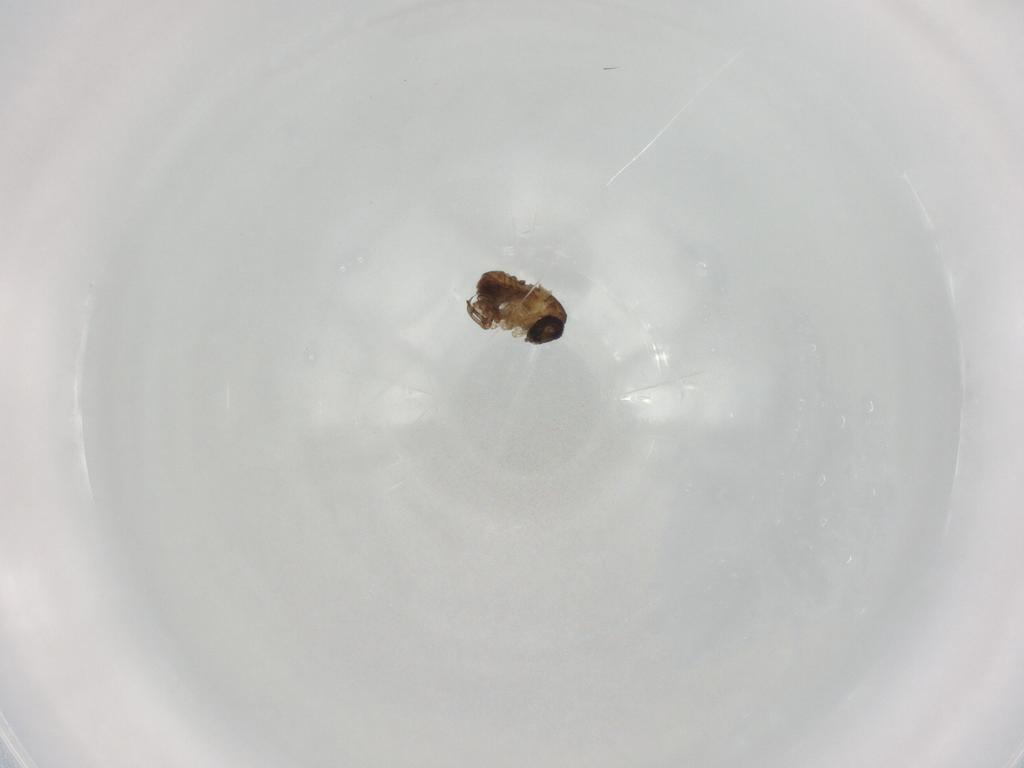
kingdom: Animalia
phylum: Arthropoda
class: Insecta
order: Diptera
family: Psychodidae
